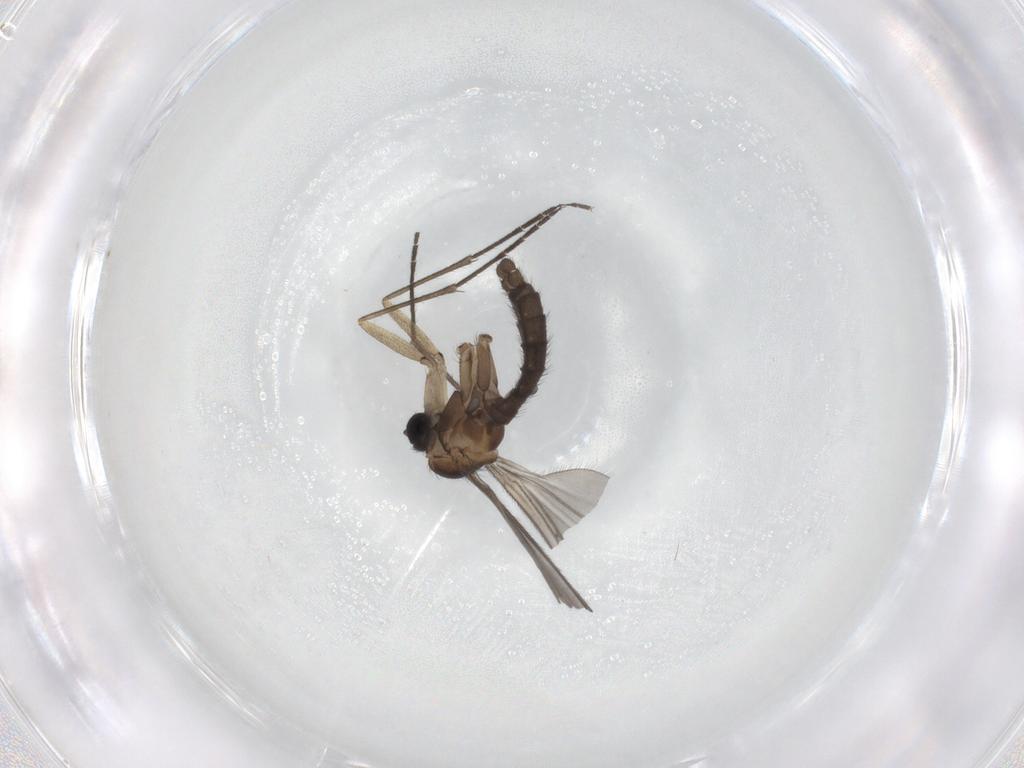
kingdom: Animalia
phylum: Arthropoda
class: Insecta
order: Diptera
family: Sciaridae
